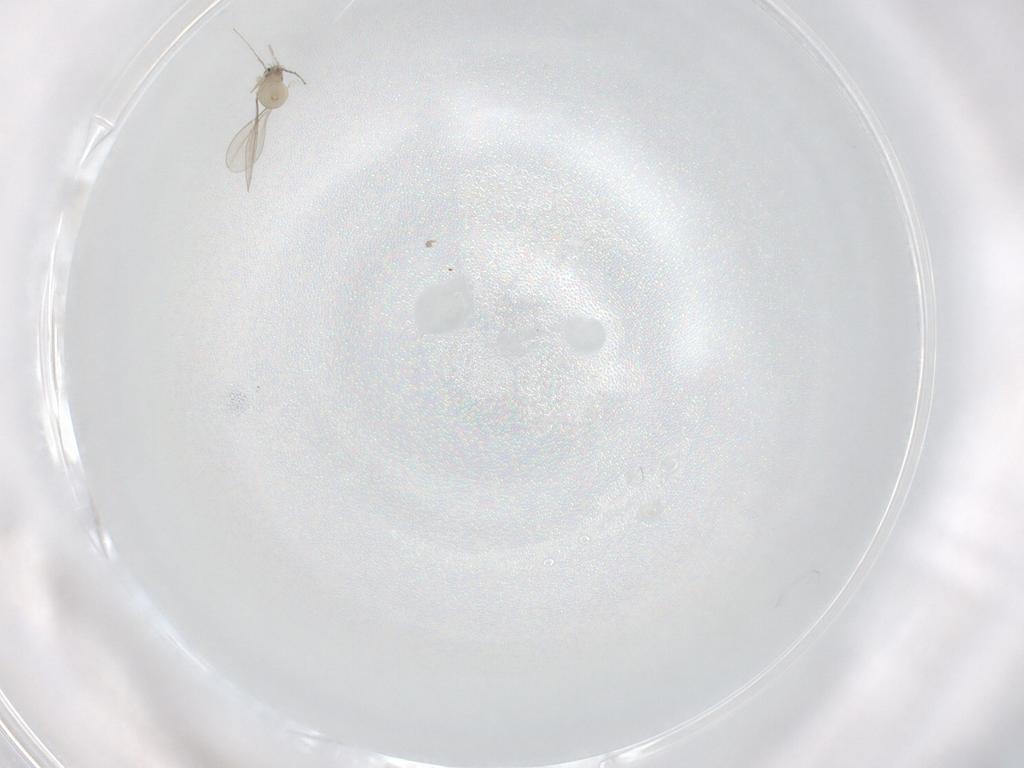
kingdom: Animalia
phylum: Arthropoda
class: Insecta
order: Diptera
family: Cecidomyiidae
